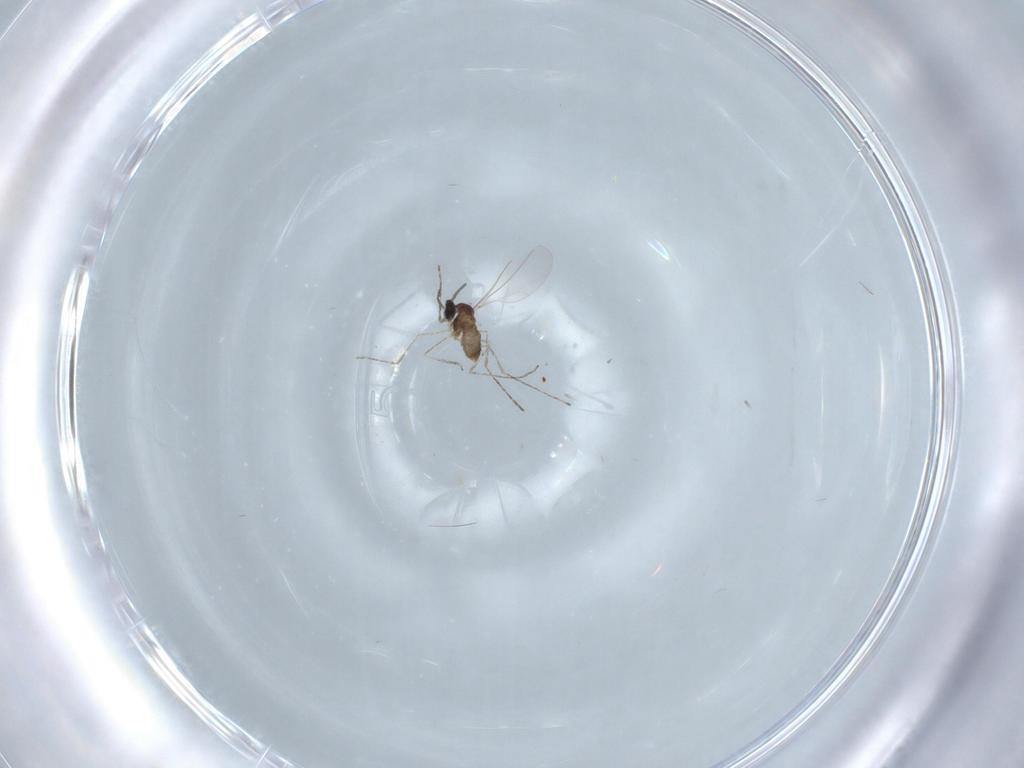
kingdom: Animalia
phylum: Arthropoda
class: Insecta
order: Diptera
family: Cecidomyiidae
